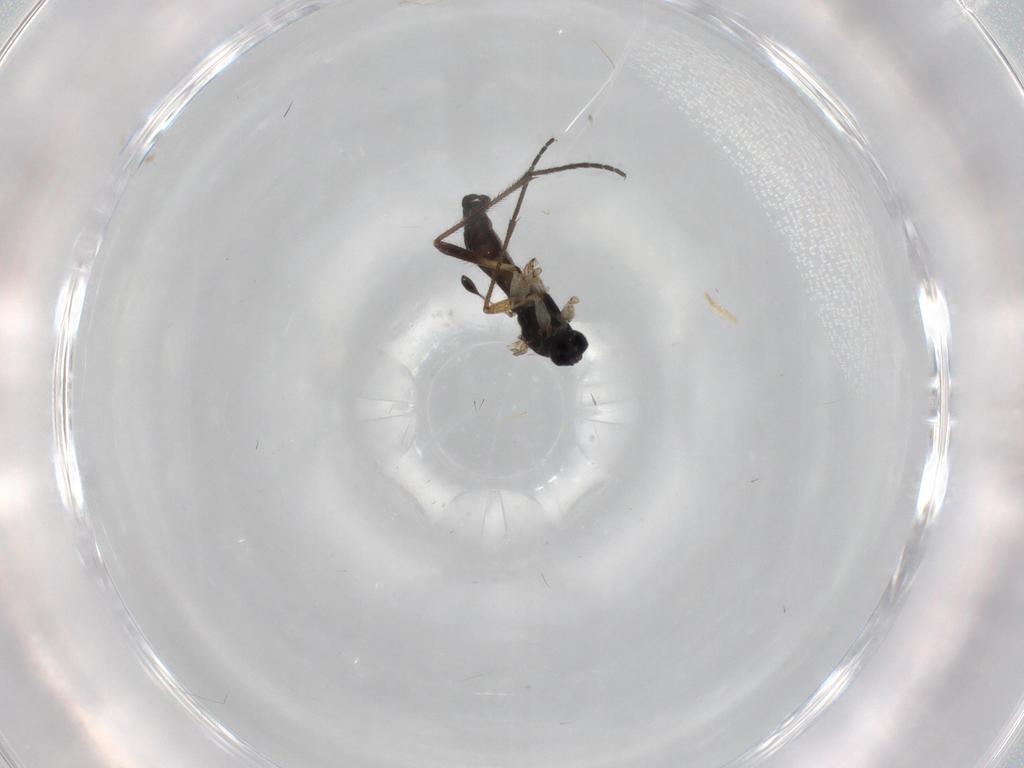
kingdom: Animalia
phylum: Arthropoda
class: Insecta
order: Diptera
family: Sciaridae
